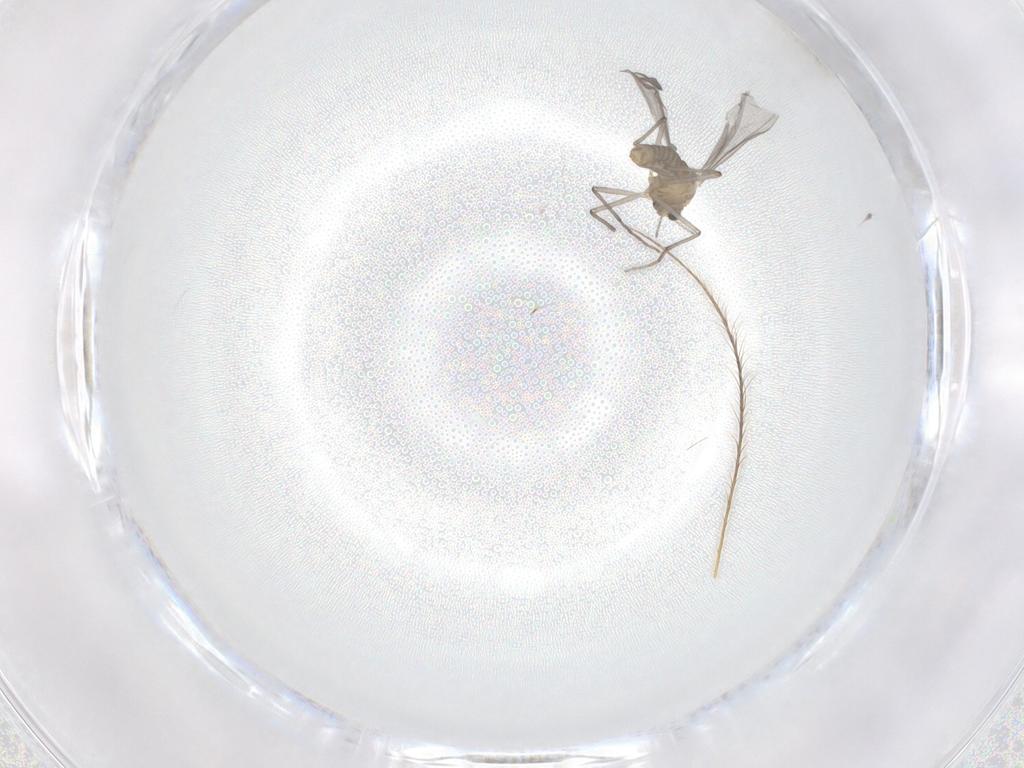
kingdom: Animalia
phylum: Arthropoda
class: Insecta
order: Diptera
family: Chironomidae
